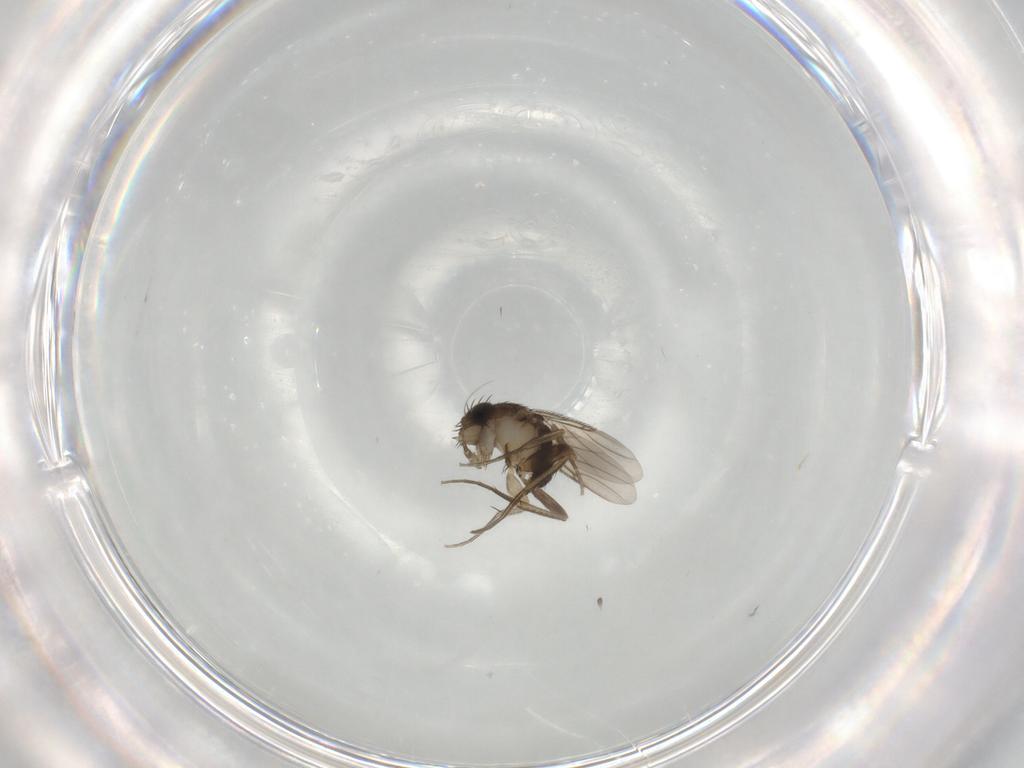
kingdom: Animalia
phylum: Arthropoda
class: Insecta
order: Diptera
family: Phoridae
